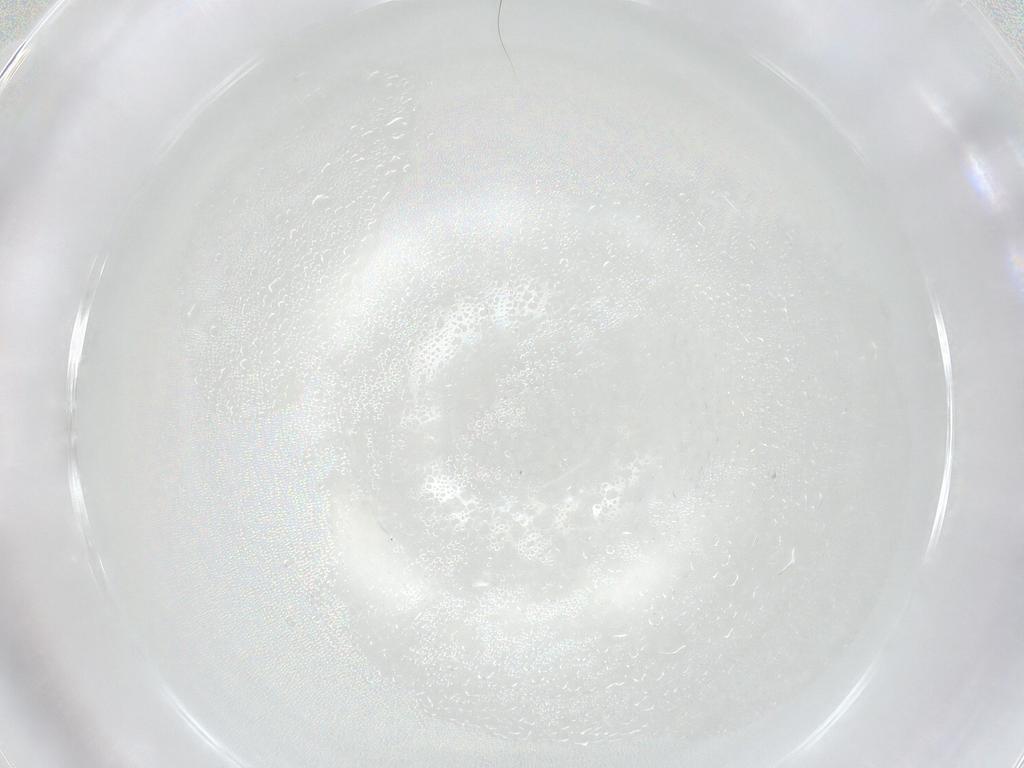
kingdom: Animalia
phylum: Arthropoda
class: Insecta
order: Diptera
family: Phoridae
